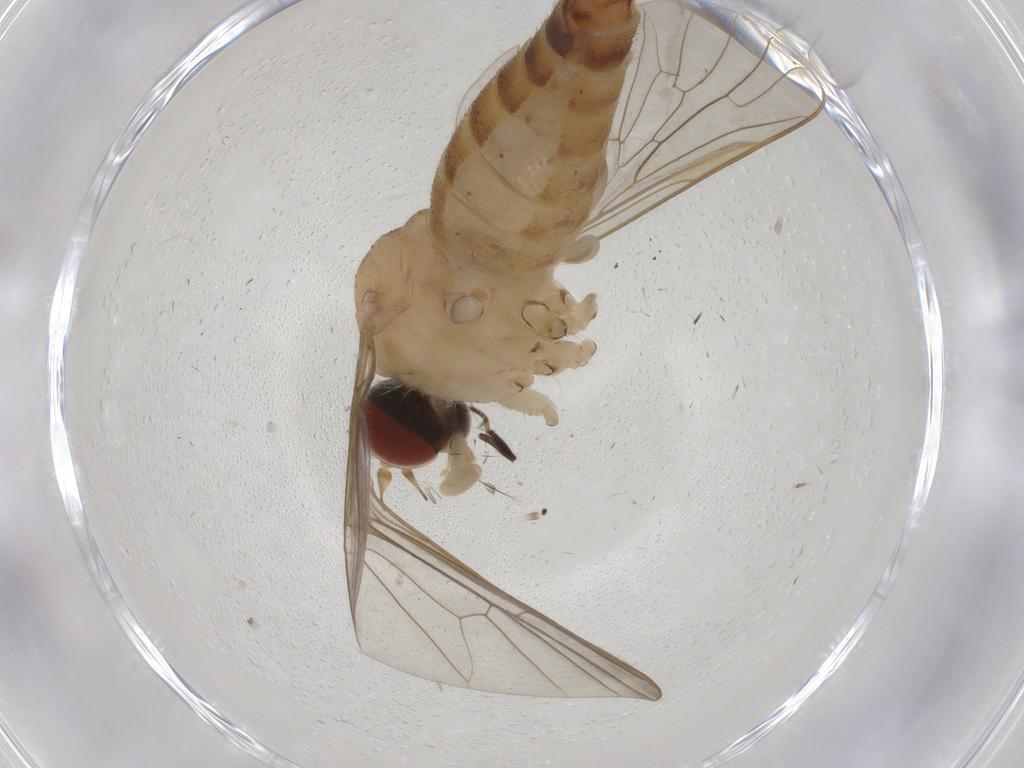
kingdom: Animalia
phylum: Arthropoda
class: Insecta
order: Diptera
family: Apsilocephalidae
